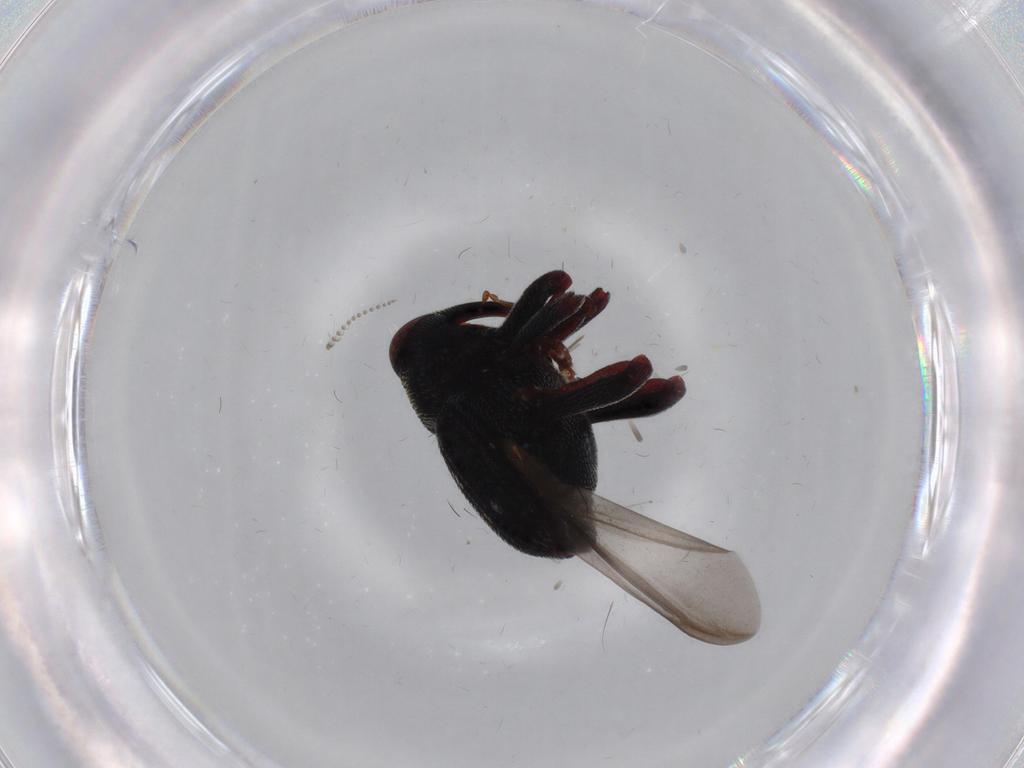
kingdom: Animalia
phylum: Arthropoda
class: Insecta
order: Coleoptera
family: Curculionidae
